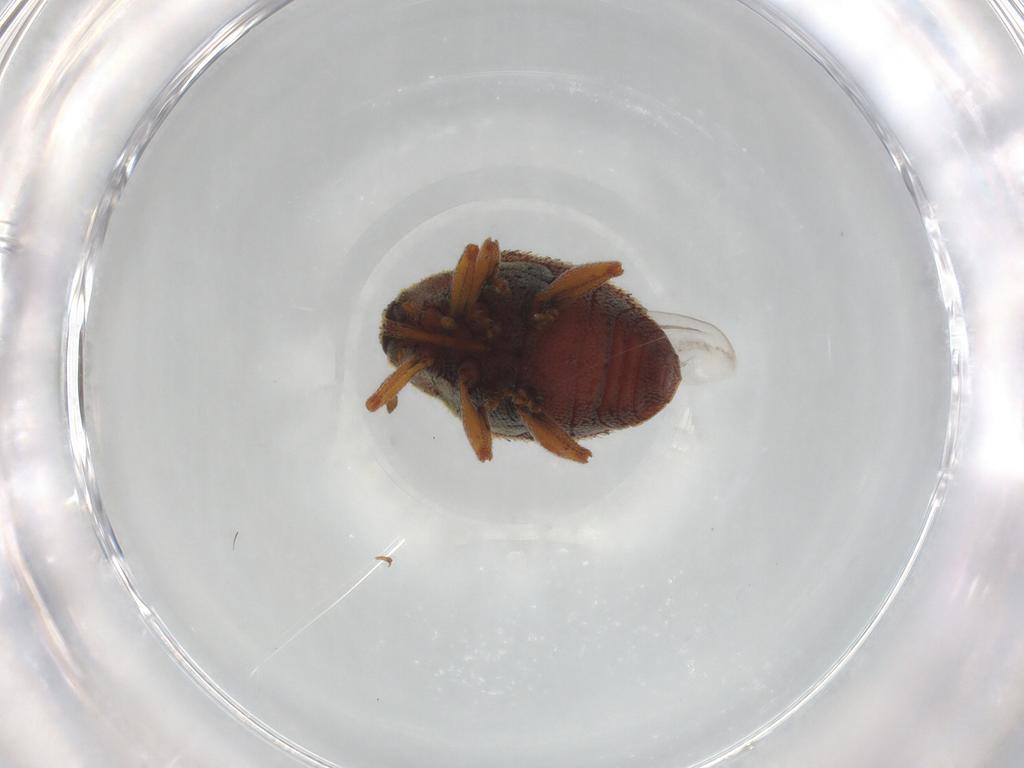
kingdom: Animalia
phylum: Arthropoda
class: Insecta
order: Coleoptera
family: Curculionidae
